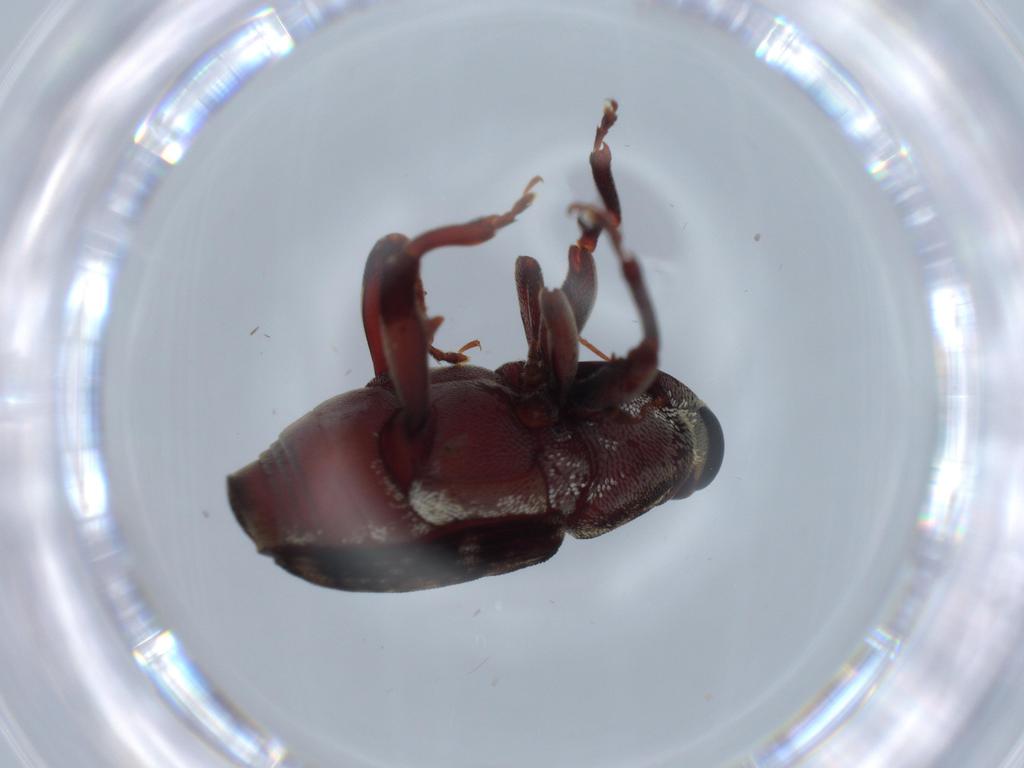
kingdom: Animalia
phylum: Arthropoda
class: Insecta
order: Coleoptera
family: Curculionidae
